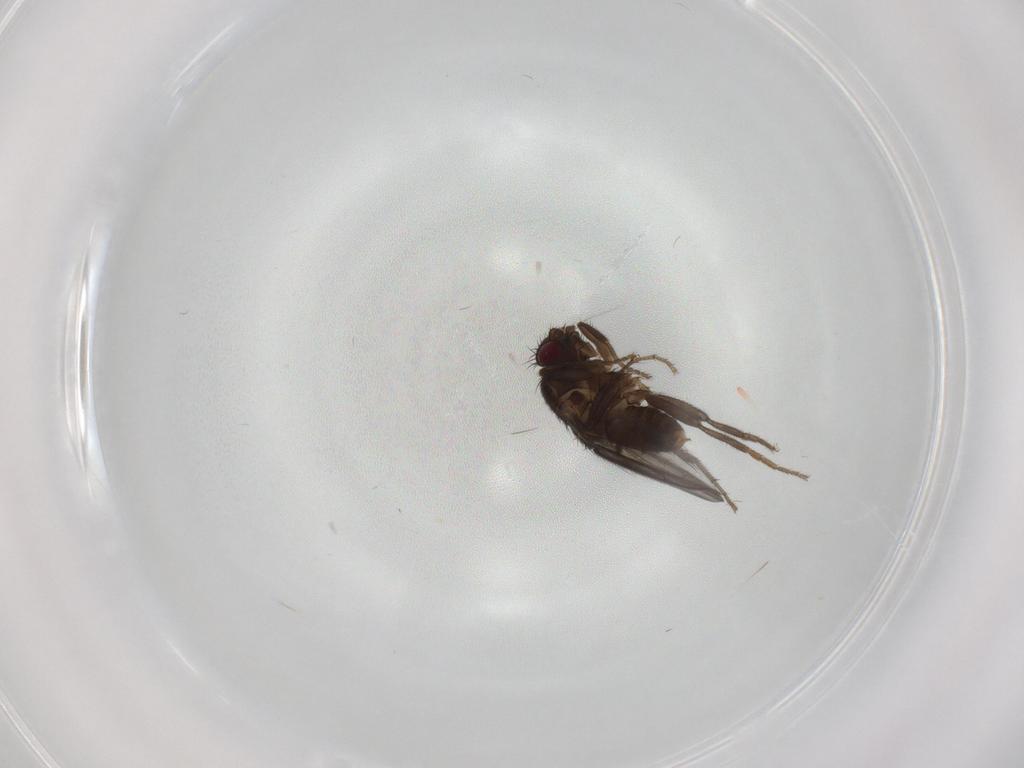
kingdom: Animalia
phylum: Arthropoda
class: Insecta
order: Diptera
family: Sphaeroceridae
